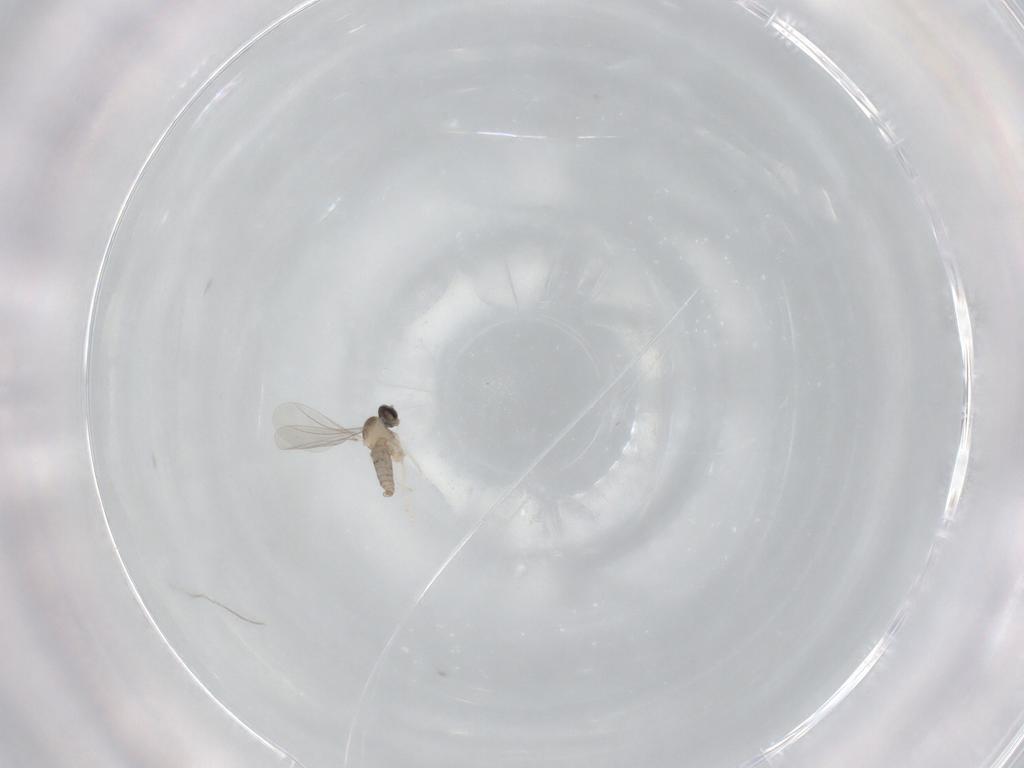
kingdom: Animalia
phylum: Arthropoda
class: Insecta
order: Diptera
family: Cecidomyiidae
